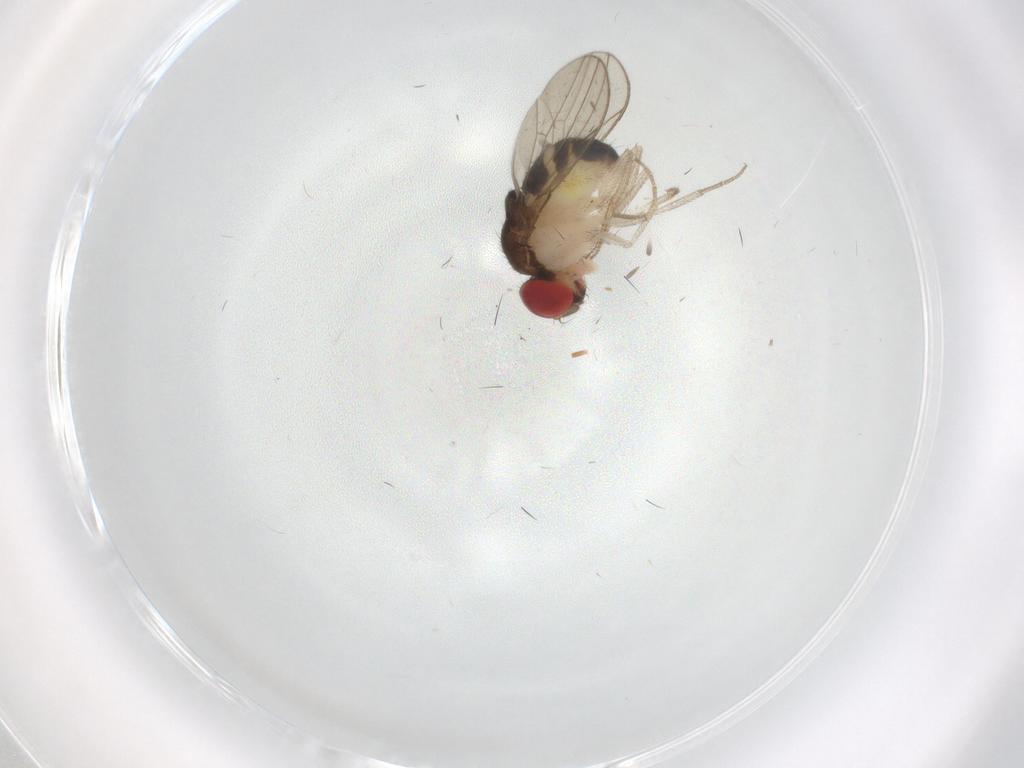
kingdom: Animalia
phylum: Arthropoda
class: Insecta
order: Diptera
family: Drosophilidae
